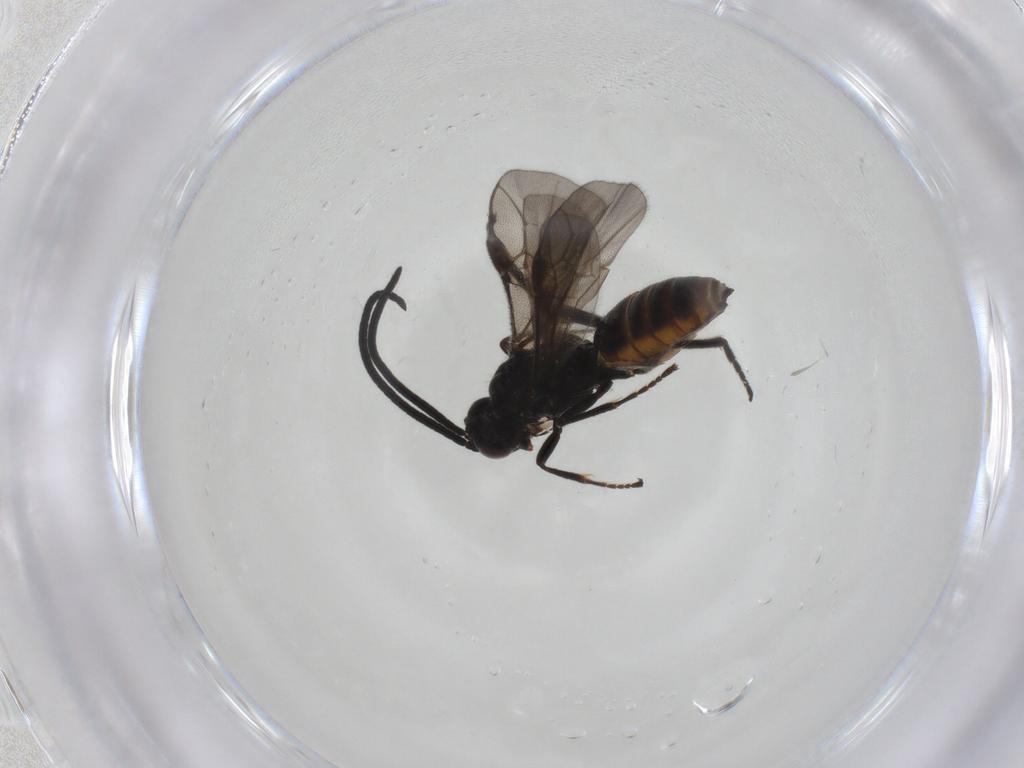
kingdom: Animalia
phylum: Arthropoda
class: Insecta
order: Hymenoptera
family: Braconidae
